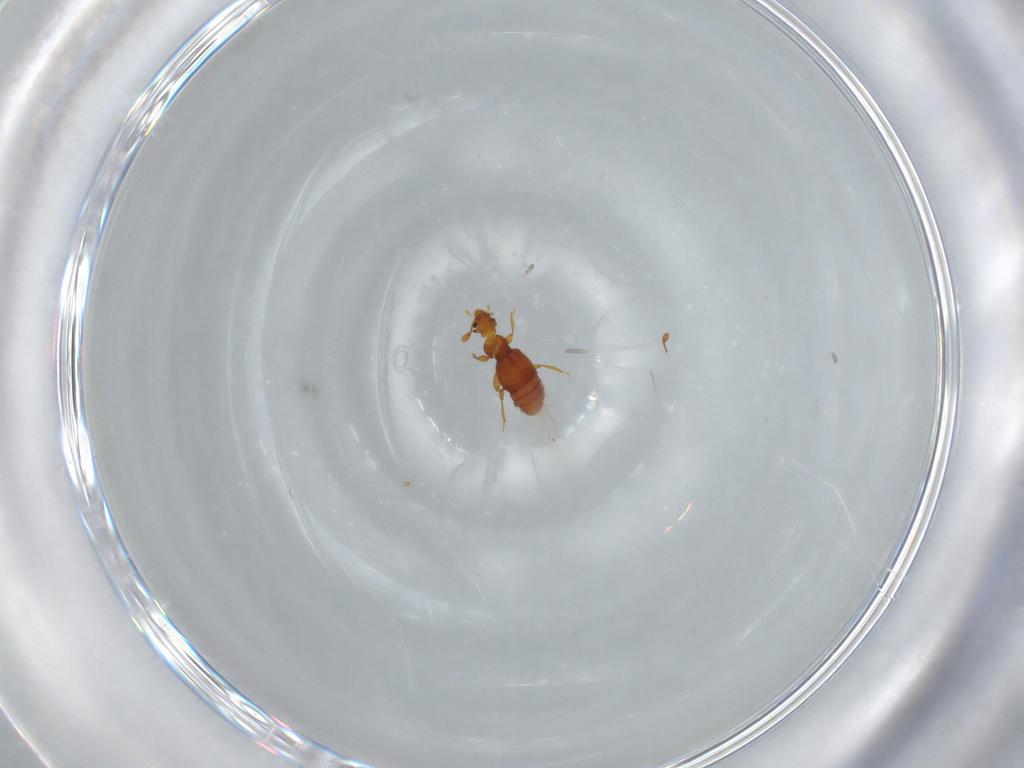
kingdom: Animalia
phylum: Arthropoda
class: Insecta
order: Coleoptera
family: Staphylinidae
